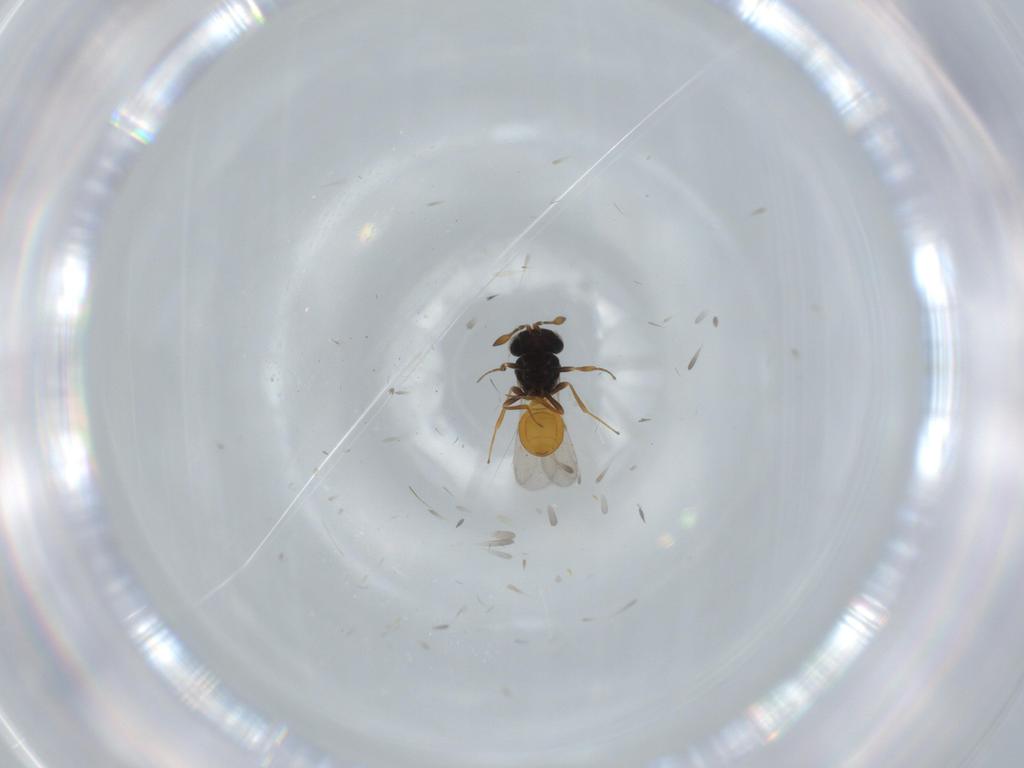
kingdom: Animalia
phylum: Arthropoda
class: Insecta
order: Hymenoptera
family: Scelionidae
